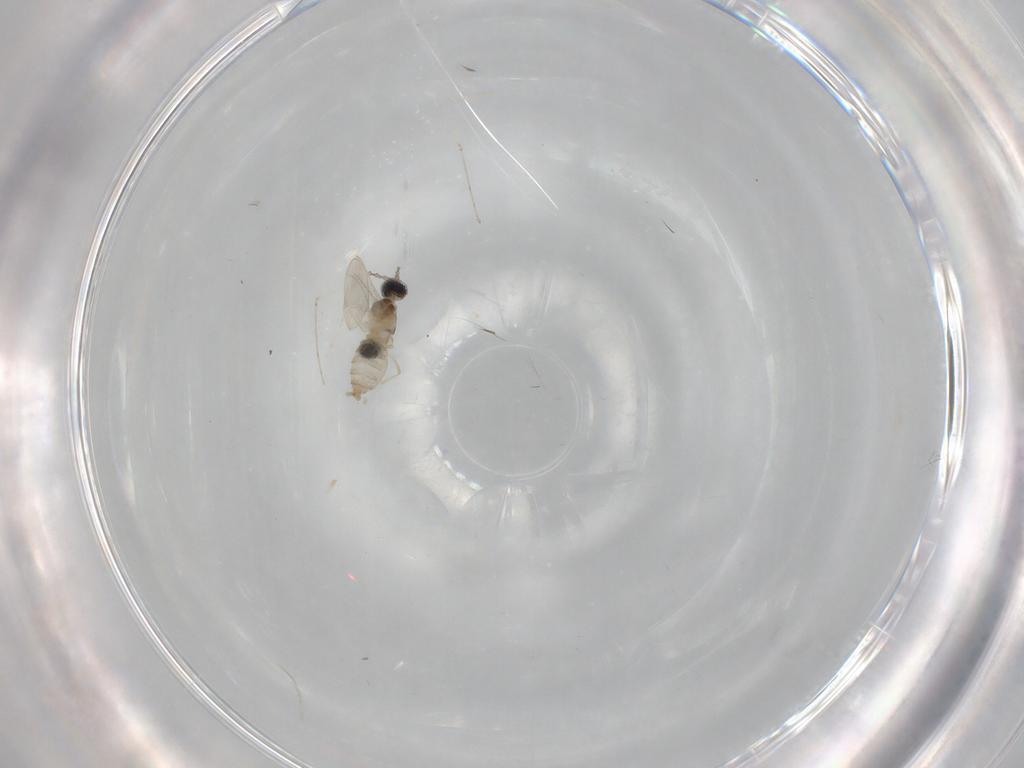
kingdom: Animalia
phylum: Arthropoda
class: Insecta
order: Diptera
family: Cecidomyiidae
